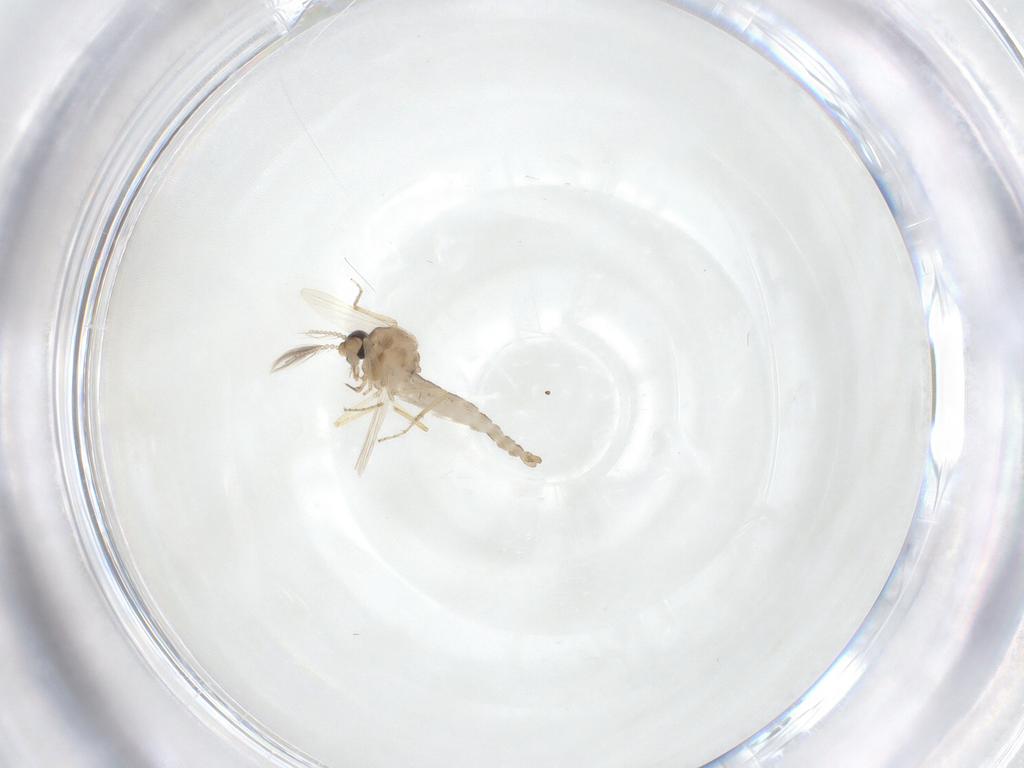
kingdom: Animalia
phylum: Arthropoda
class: Insecta
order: Diptera
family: Ceratopogonidae
